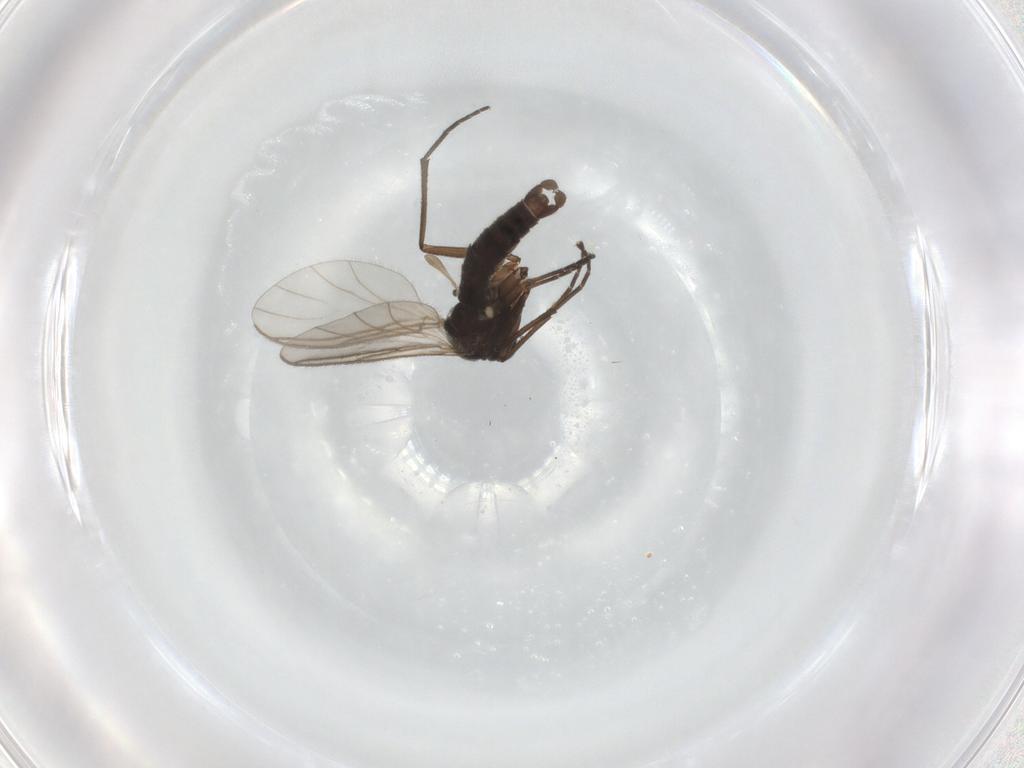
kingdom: Animalia
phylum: Arthropoda
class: Insecta
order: Diptera
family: Sciaridae
